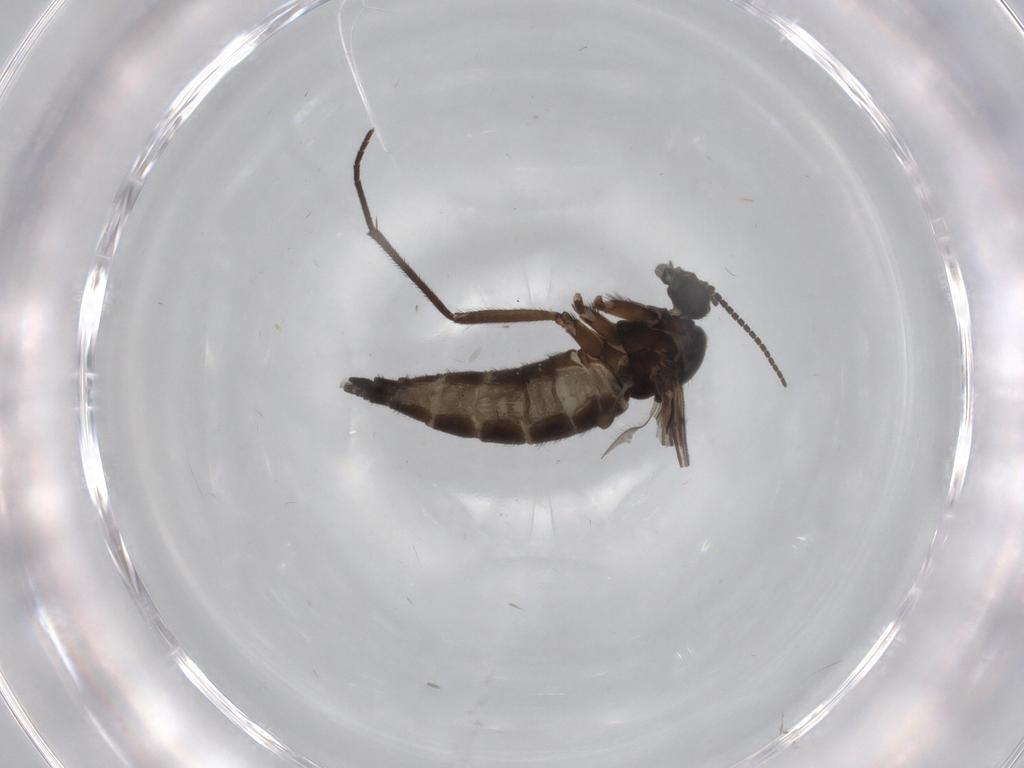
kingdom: Animalia
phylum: Arthropoda
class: Insecta
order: Diptera
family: Sciaridae
